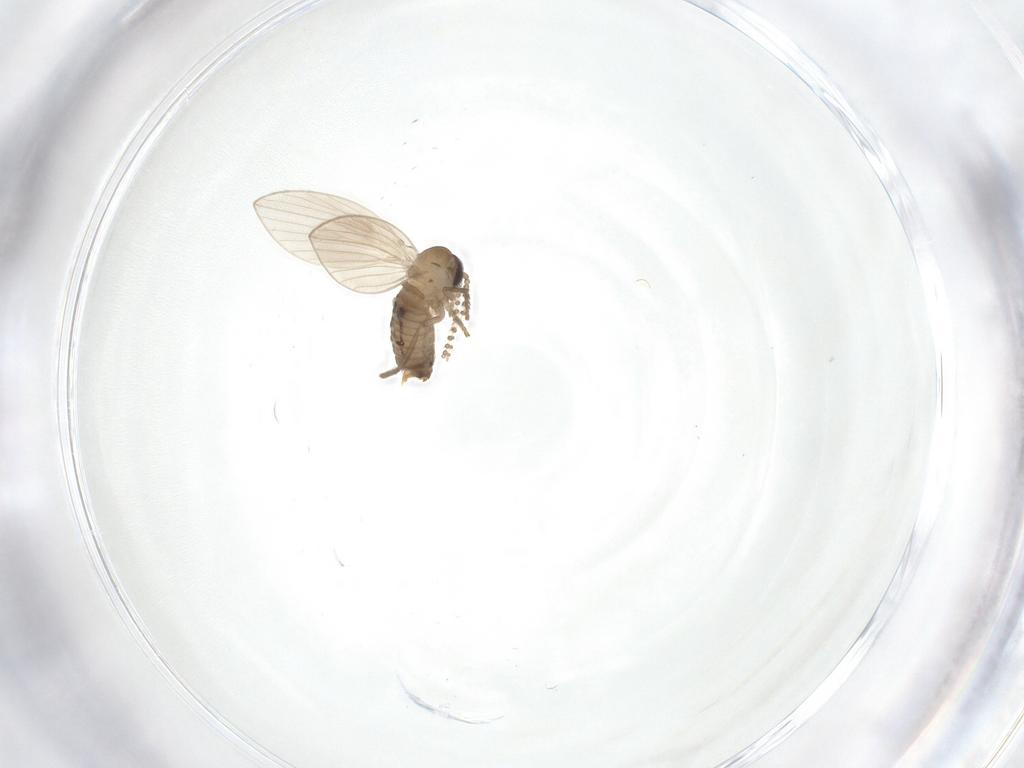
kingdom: Animalia
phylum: Arthropoda
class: Insecta
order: Diptera
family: Psychodidae
